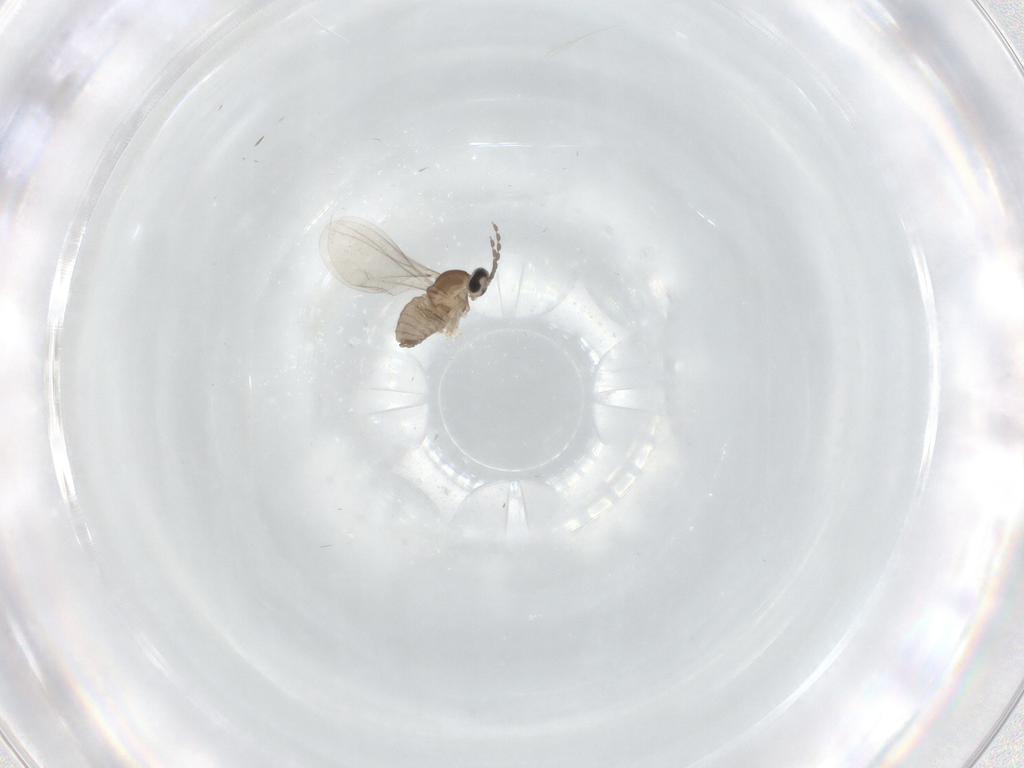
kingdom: Animalia
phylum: Arthropoda
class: Insecta
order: Diptera
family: Cecidomyiidae
